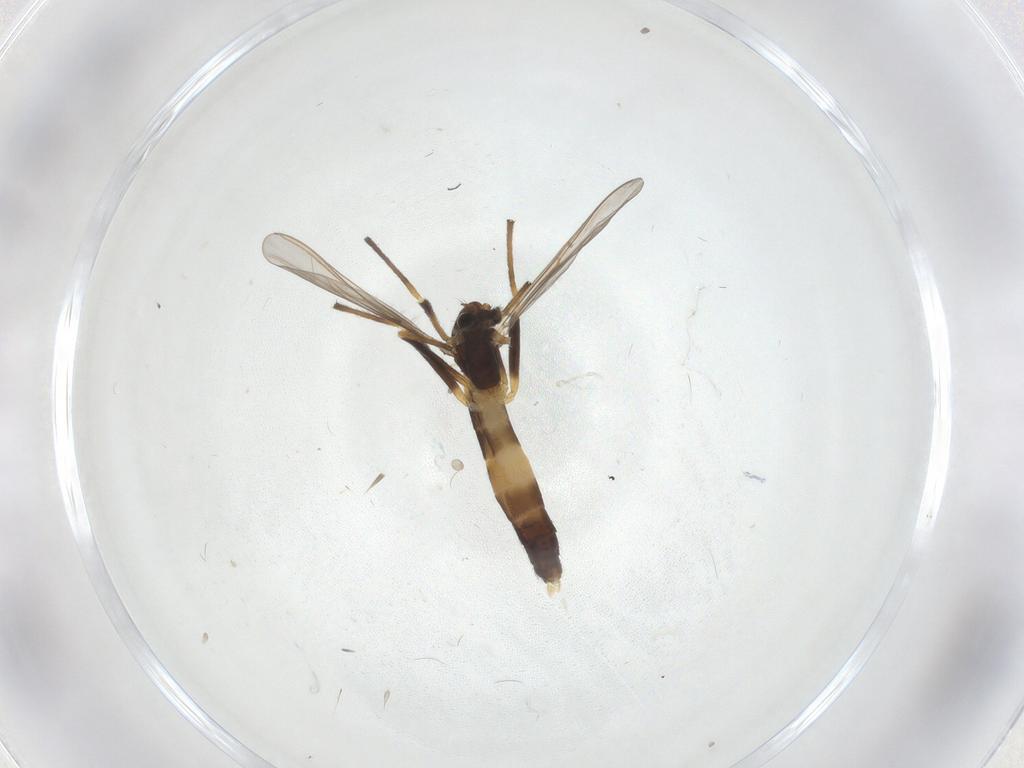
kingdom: Animalia
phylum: Arthropoda
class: Insecta
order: Diptera
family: Chironomidae
